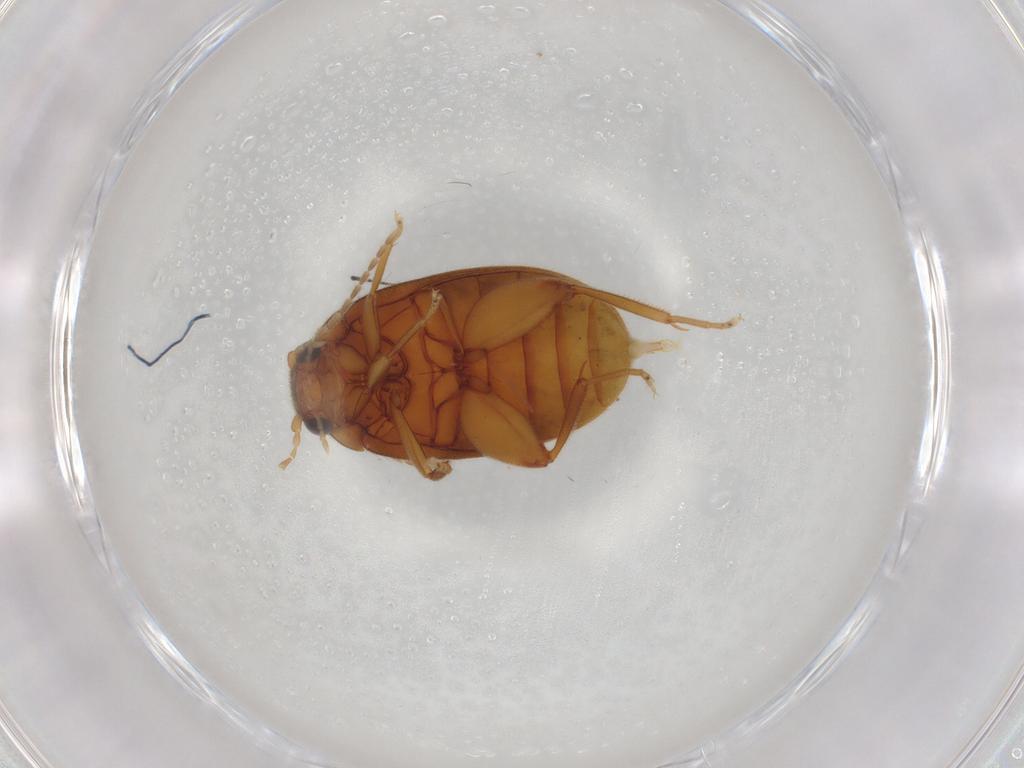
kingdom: Animalia
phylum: Arthropoda
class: Insecta
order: Coleoptera
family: Scirtidae
